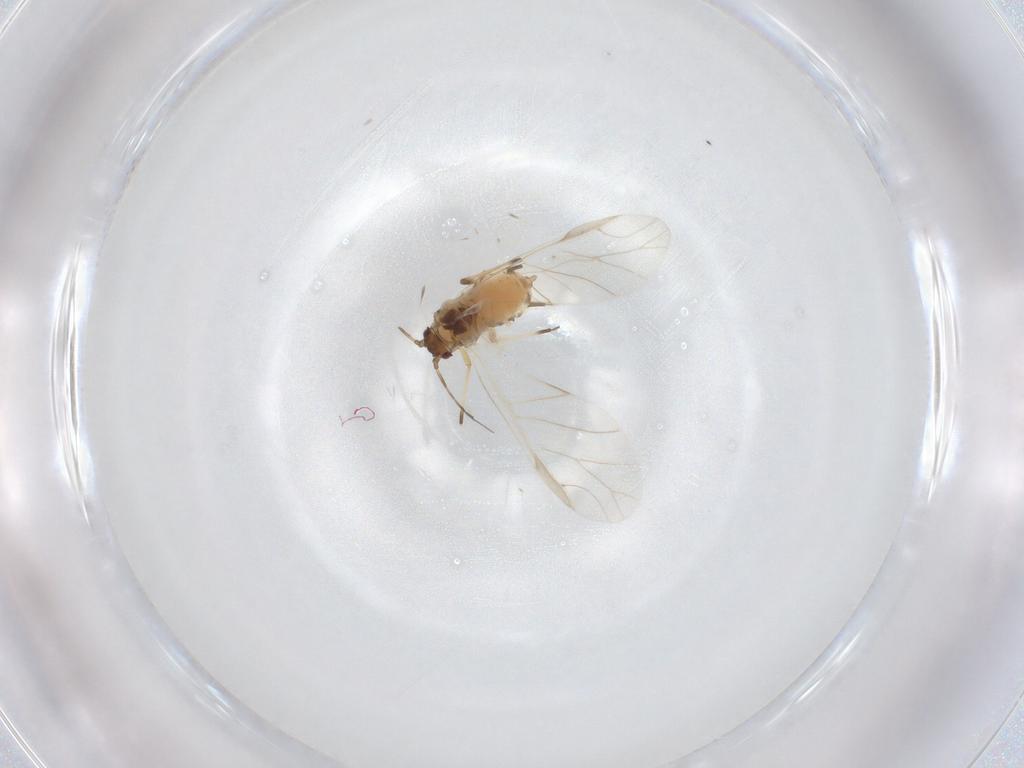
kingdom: Animalia
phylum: Arthropoda
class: Insecta
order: Hemiptera
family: Aphididae
